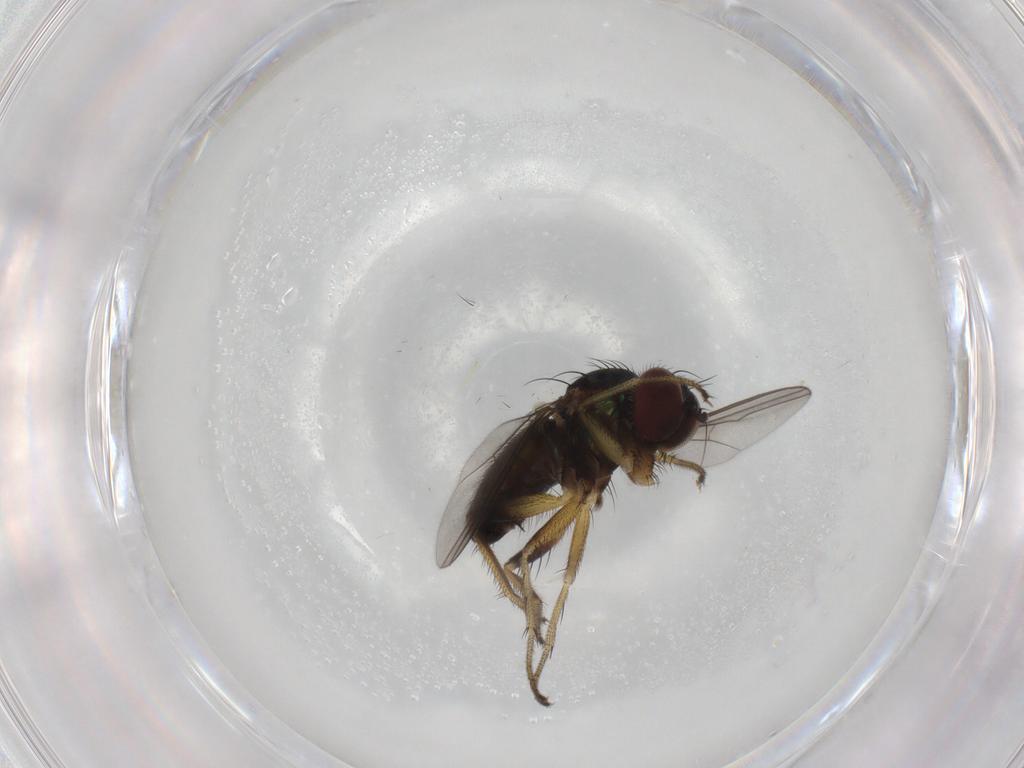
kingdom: Animalia
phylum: Arthropoda
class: Insecta
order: Diptera
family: Dolichopodidae
